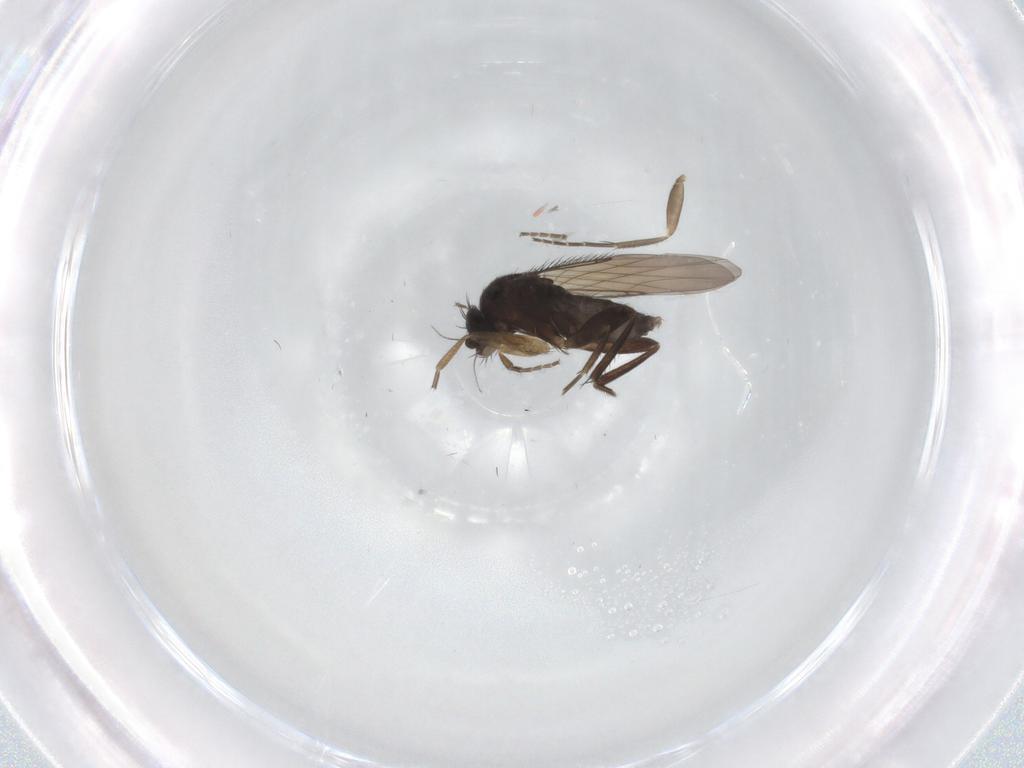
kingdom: Animalia
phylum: Arthropoda
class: Insecta
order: Diptera
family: Phoridae
